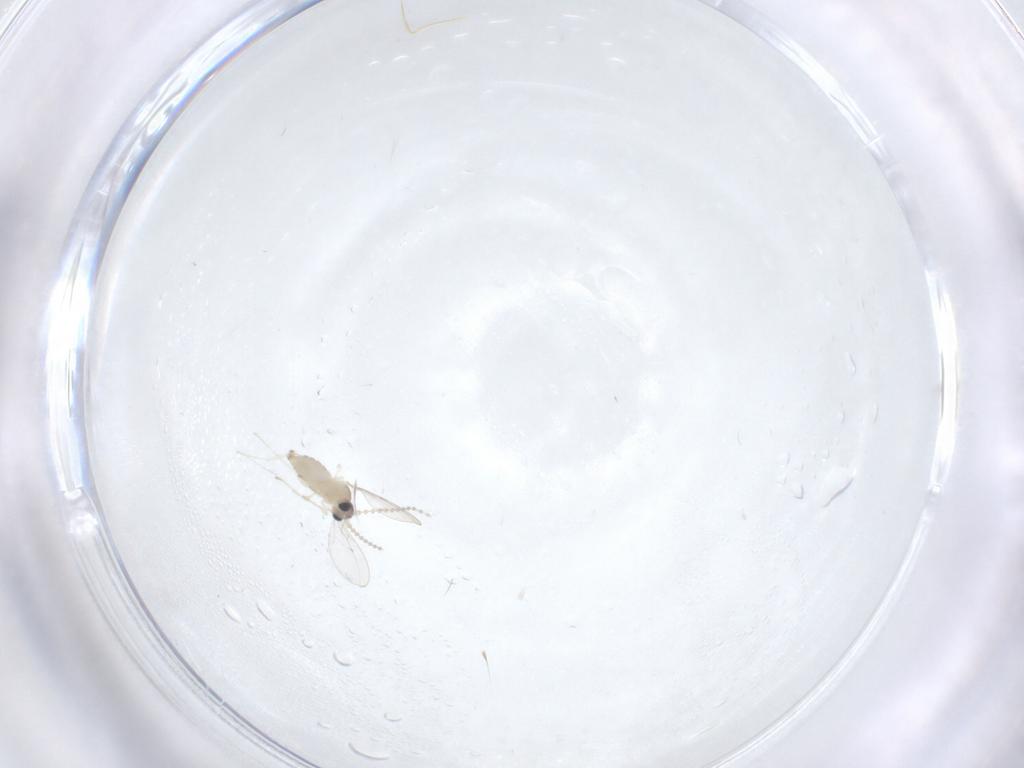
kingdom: Animalia
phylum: Arthropoda
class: Insecta
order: Diptera
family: Cecidomyiidae
